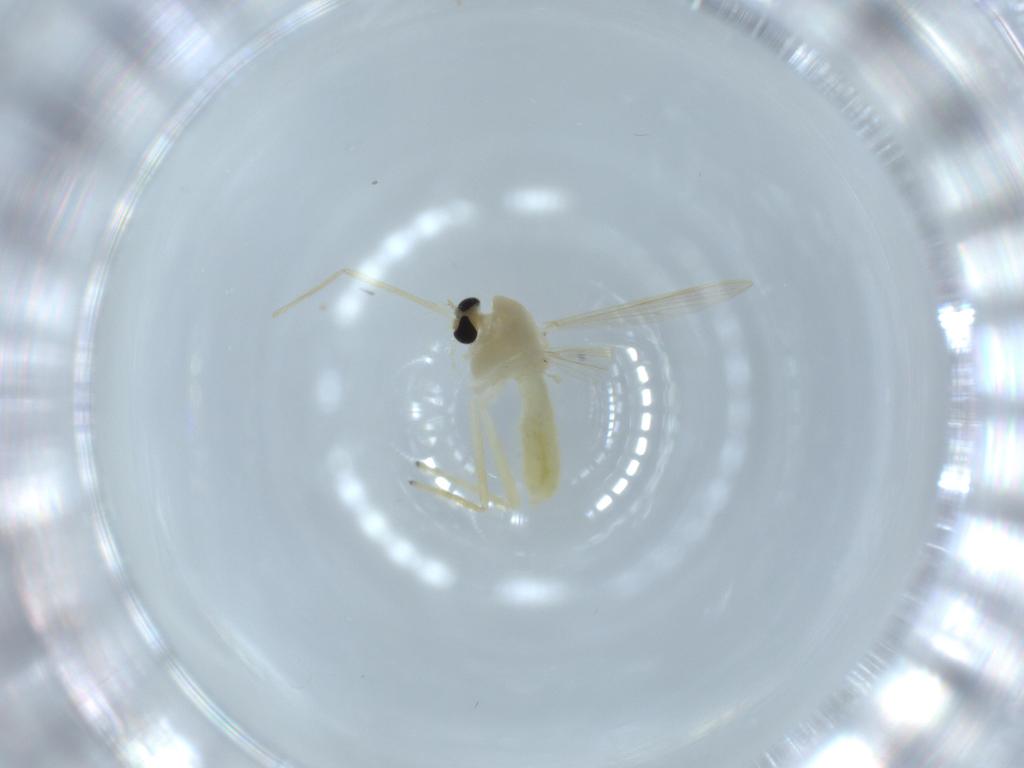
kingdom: Animalia
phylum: Arthropoda
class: Insecta
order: Diptera
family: Chironomidae
